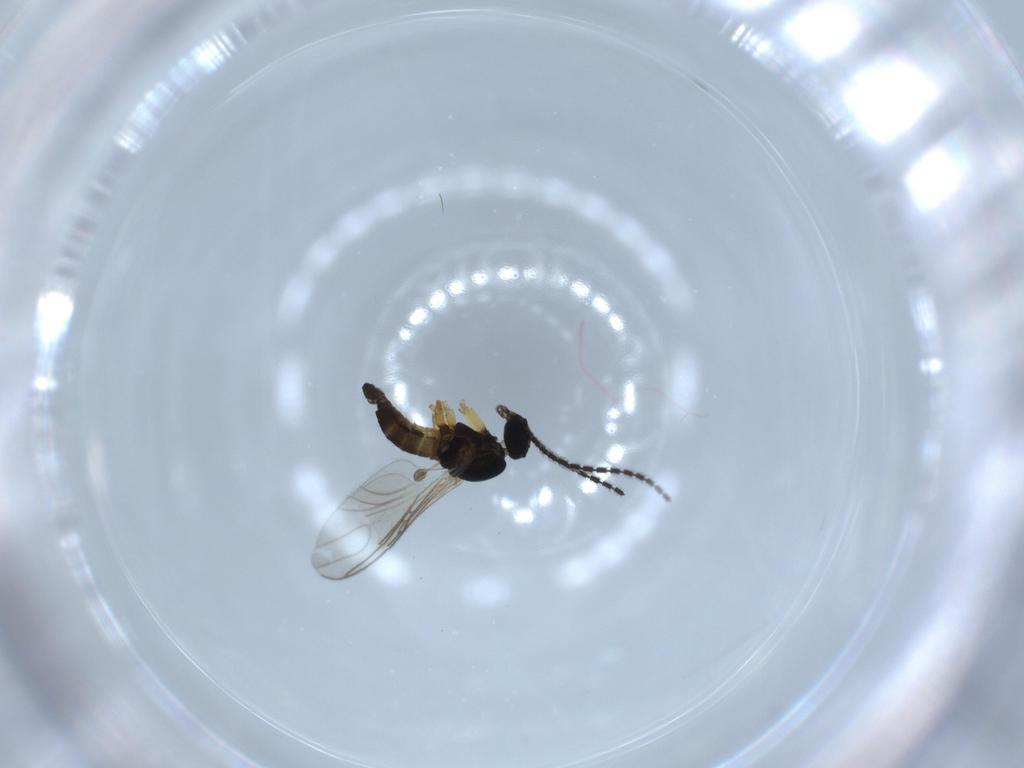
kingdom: Animalia
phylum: Arthropoda
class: Insecta
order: Diptera
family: Sciaridae
